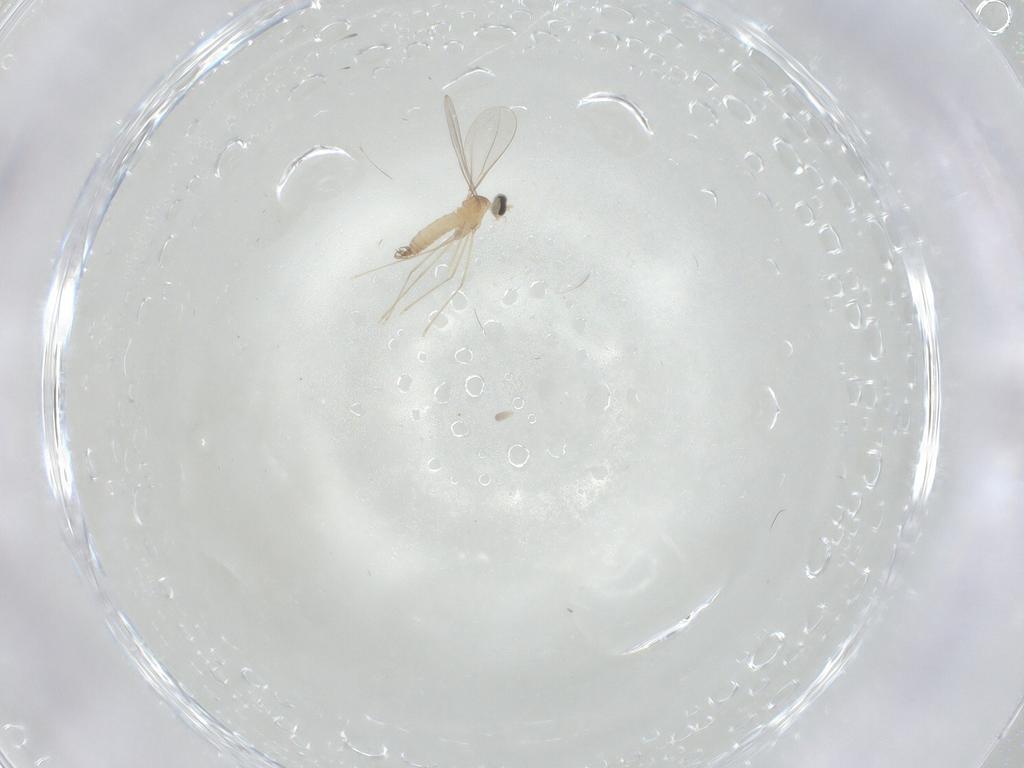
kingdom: Animalia
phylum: Arthropoda
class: Insecta
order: Diptera
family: Cecidomyiidae
